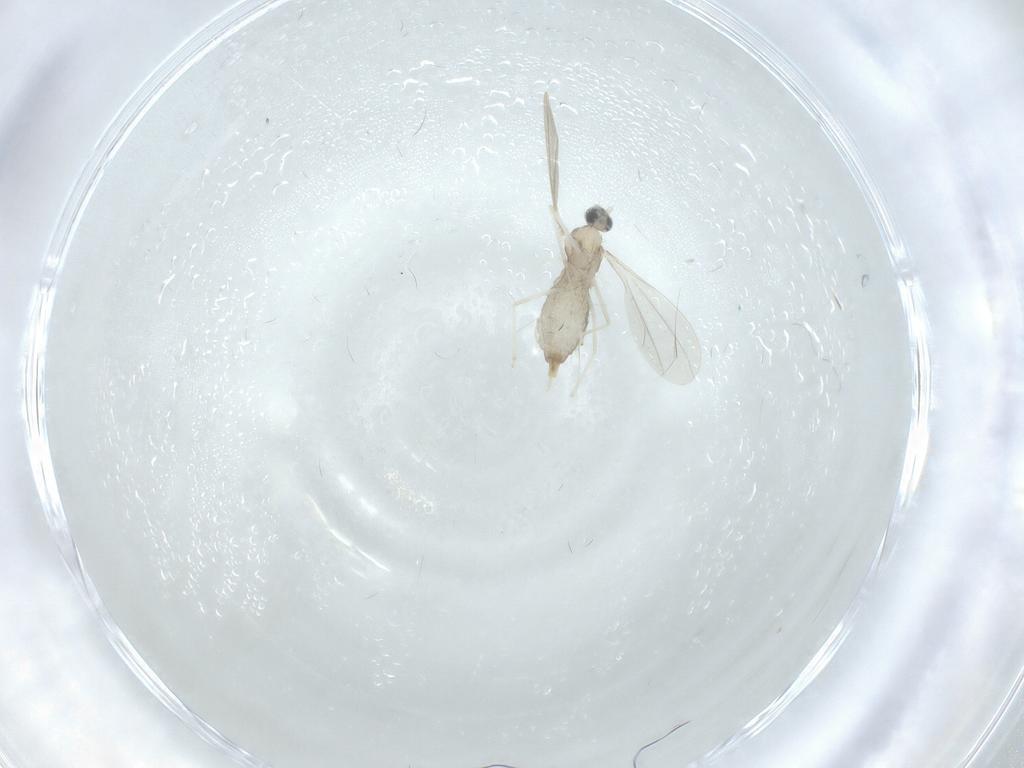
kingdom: Animalia
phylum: Arthropoda
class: Insecta
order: Diptera
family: Cecidomyiidae
